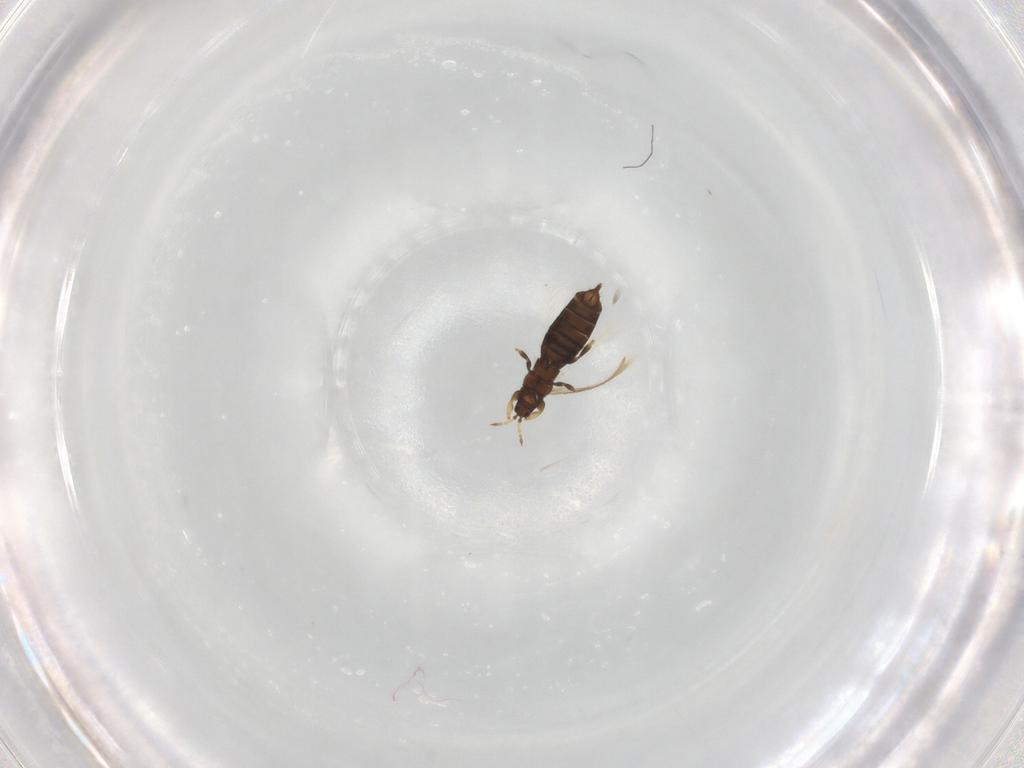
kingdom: Animalia
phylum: Arthropoda
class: Insecta
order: Thysanoptera
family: Thripidae
